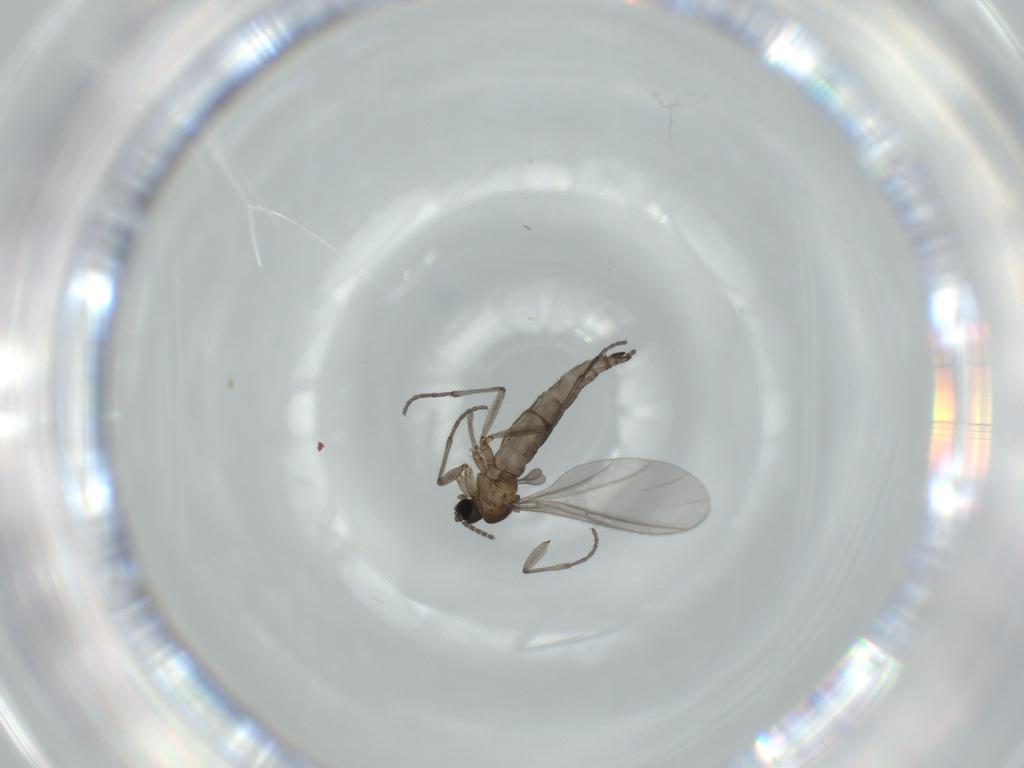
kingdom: Animalia
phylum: Arthropoda
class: Insecta
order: Diptera
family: Sciaridae
